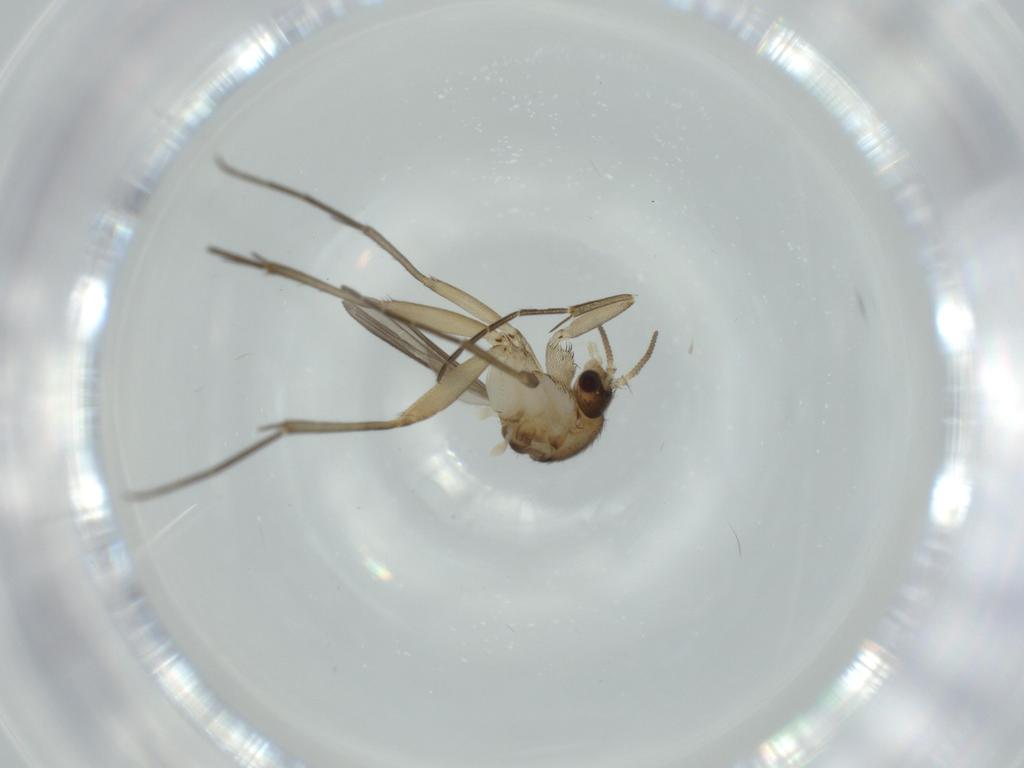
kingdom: Animalia
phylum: Arthropoda
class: Insecta
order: Diptera
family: Mycetophilidae
